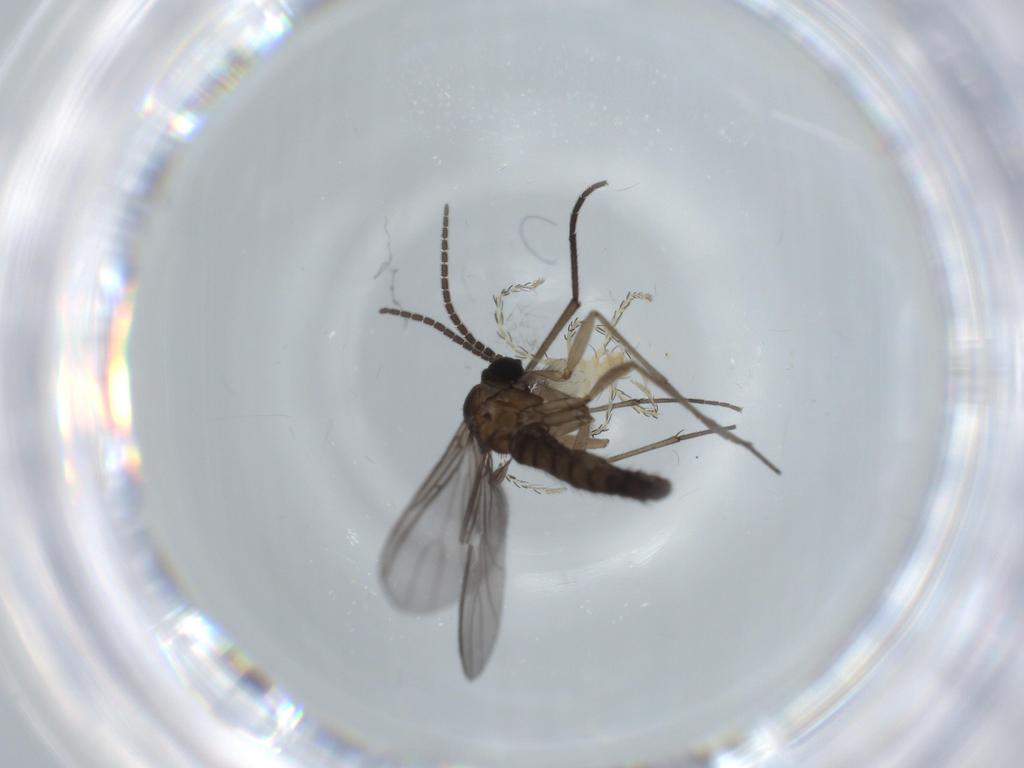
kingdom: Animalia
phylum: Arthropoda
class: Insecta
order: Diptera
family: Sciaridae
